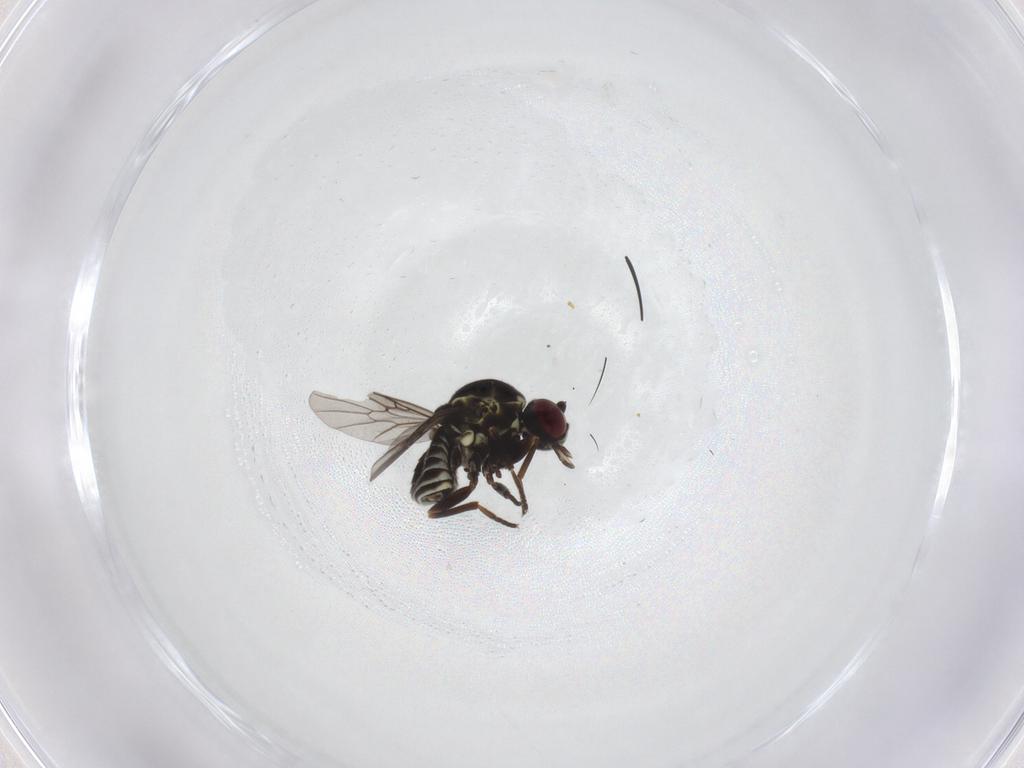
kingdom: Animalia
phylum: Arthropoda
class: Insecta
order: Diptera
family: Bombyliidae
